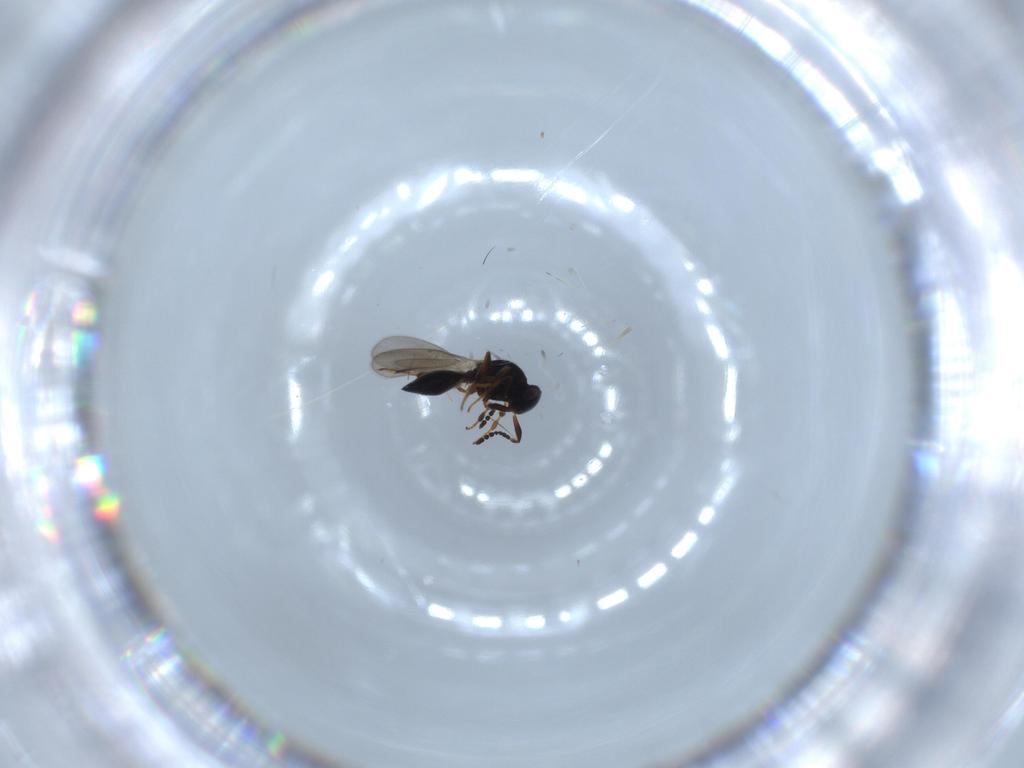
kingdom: Animalia
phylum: Arthropoda
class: Insecta
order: Hymenoptera
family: Platygastridae
